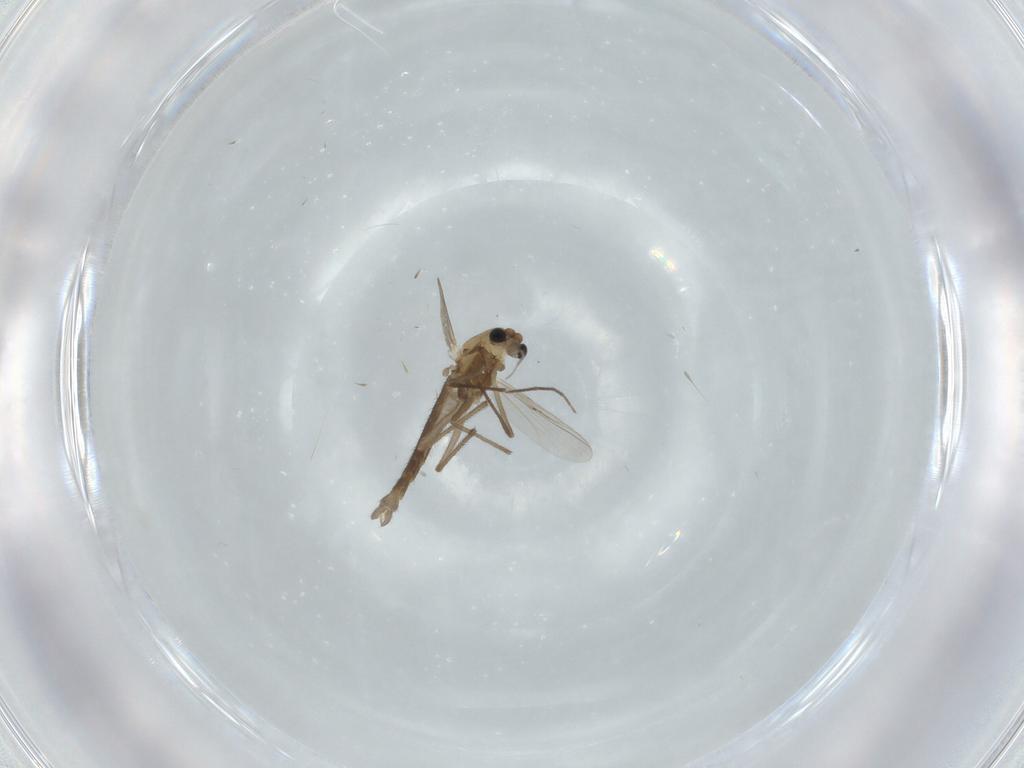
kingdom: Animalia
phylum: Arthropoda
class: Insecta
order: Diptera
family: Chironomidae
